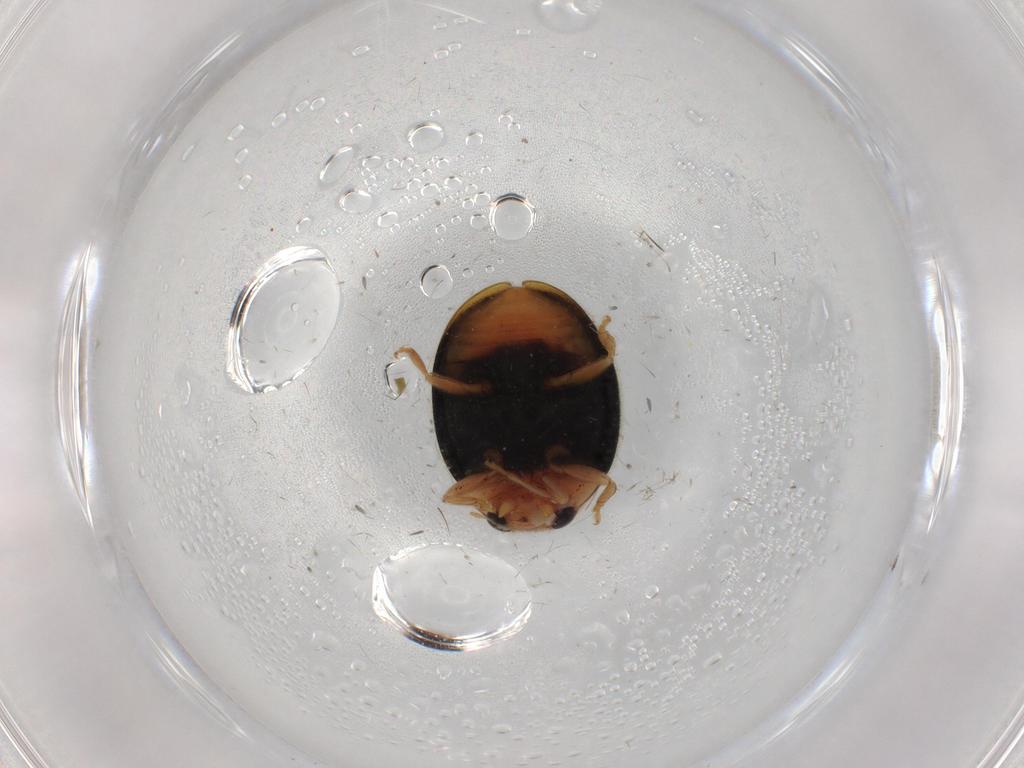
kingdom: Animalia
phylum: Arthropoda
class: Insecta
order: Coleoptera
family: Coccinellidae
